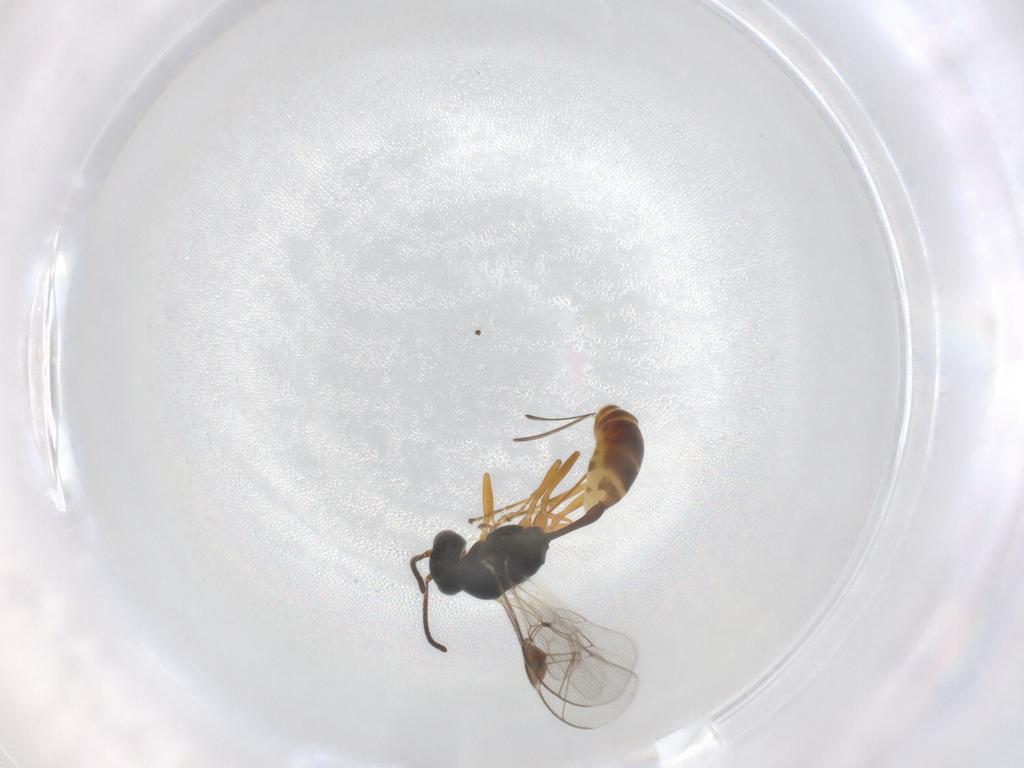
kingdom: Animalia
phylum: Arthropoda
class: Insecta
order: Hymenoptera
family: Ichneumonidae
